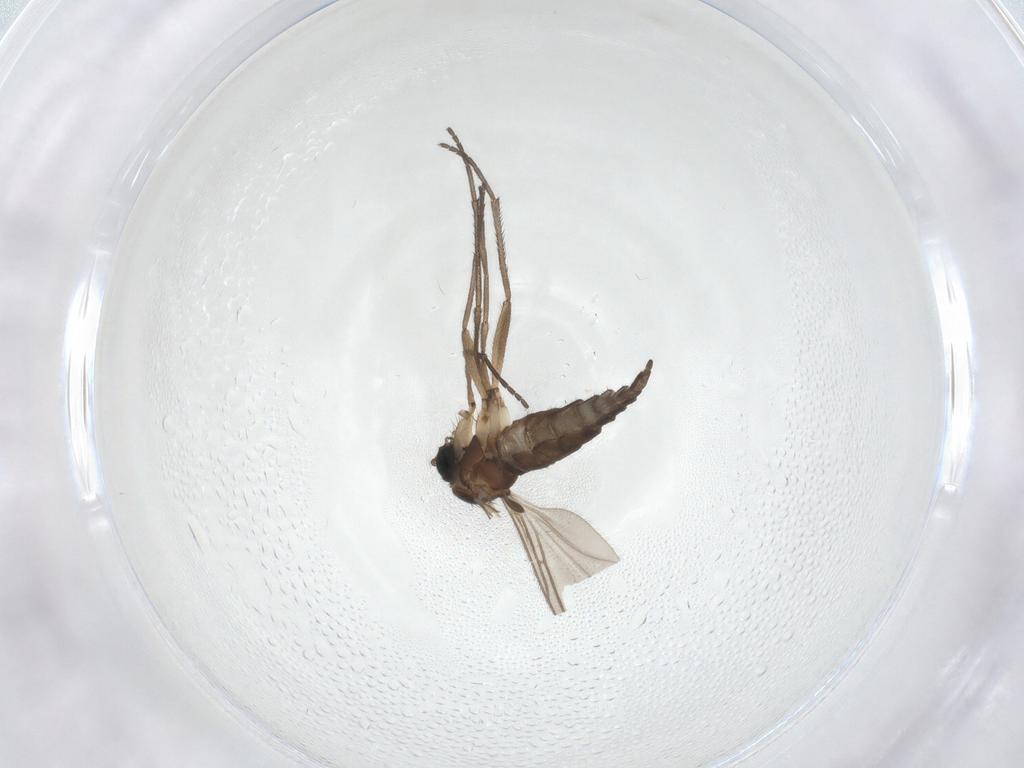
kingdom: Animalia
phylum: Arthropoda
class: Insecta
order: Diptera
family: Sciaridae
